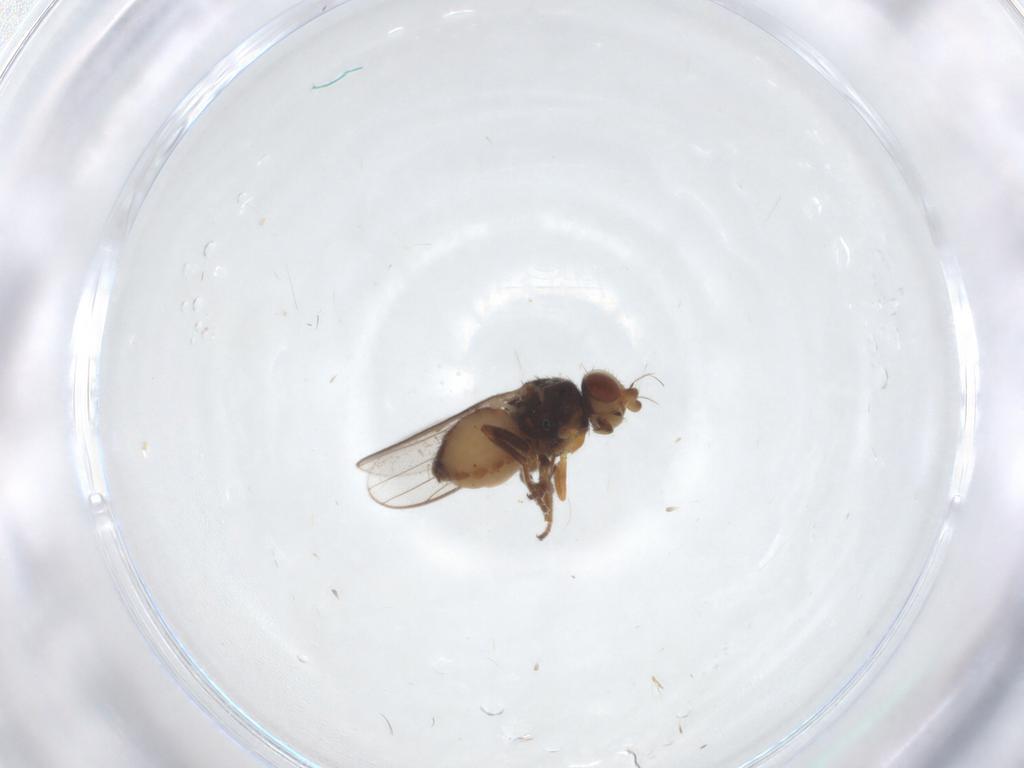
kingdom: Animalia
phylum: Arthropoda
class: Insecta
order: Diptera
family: Chloropidae
